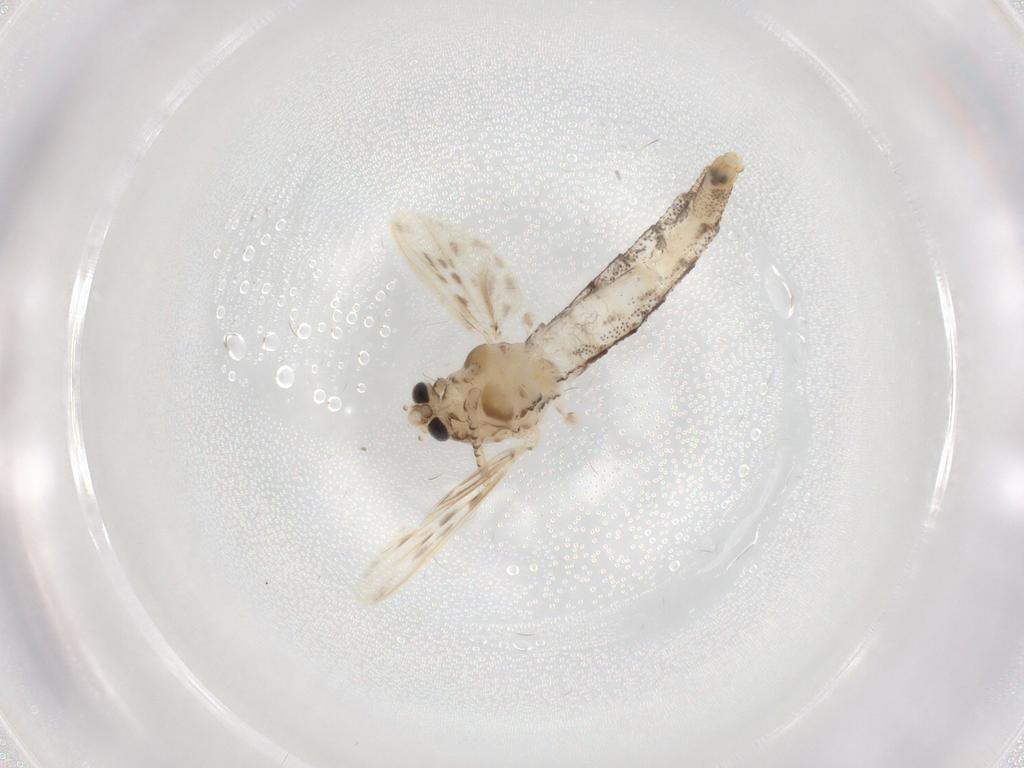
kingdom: Animalia
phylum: Arthropoda
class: Insecta
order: Diptera
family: Chaoboridae
